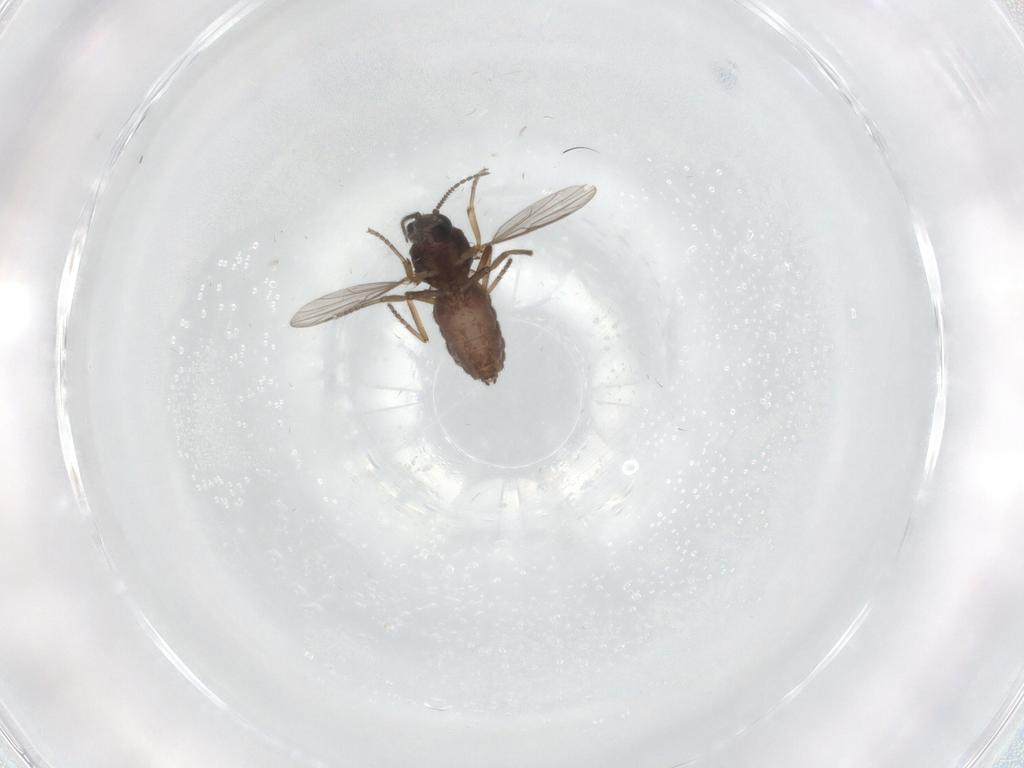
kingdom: Animalia
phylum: Arthropoda
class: Insecta
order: Diptera
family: Ceratopogonidae
